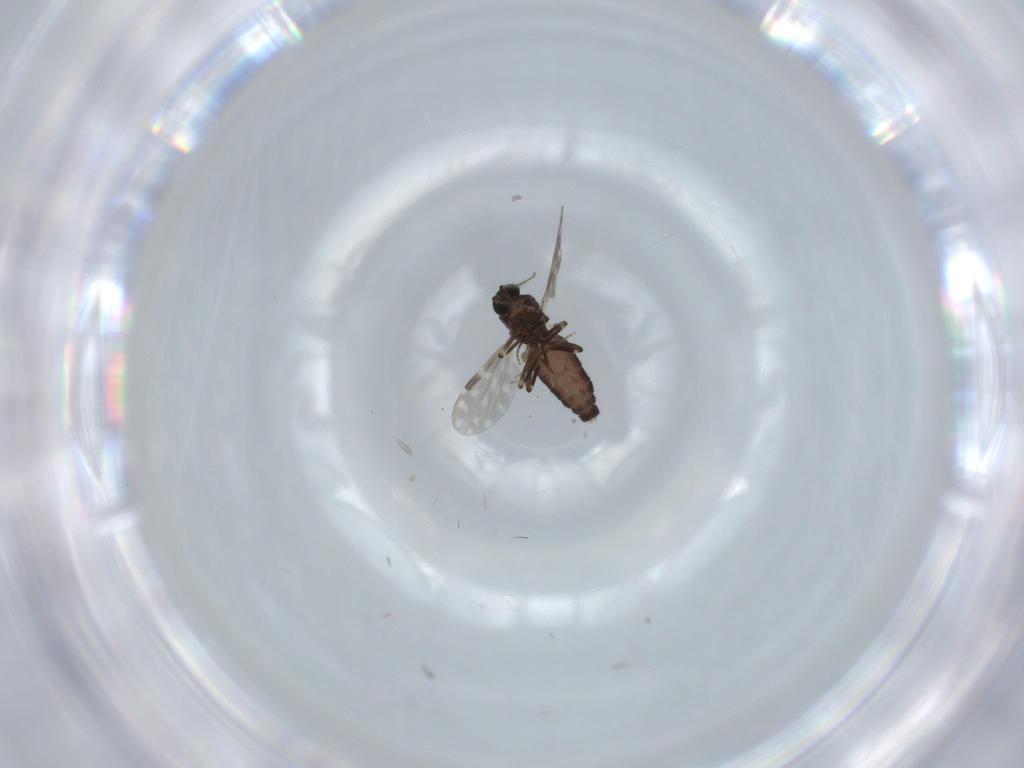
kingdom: Animalia
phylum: Arthropoda
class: Insecta
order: Diptera
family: Ceratopogonidae
